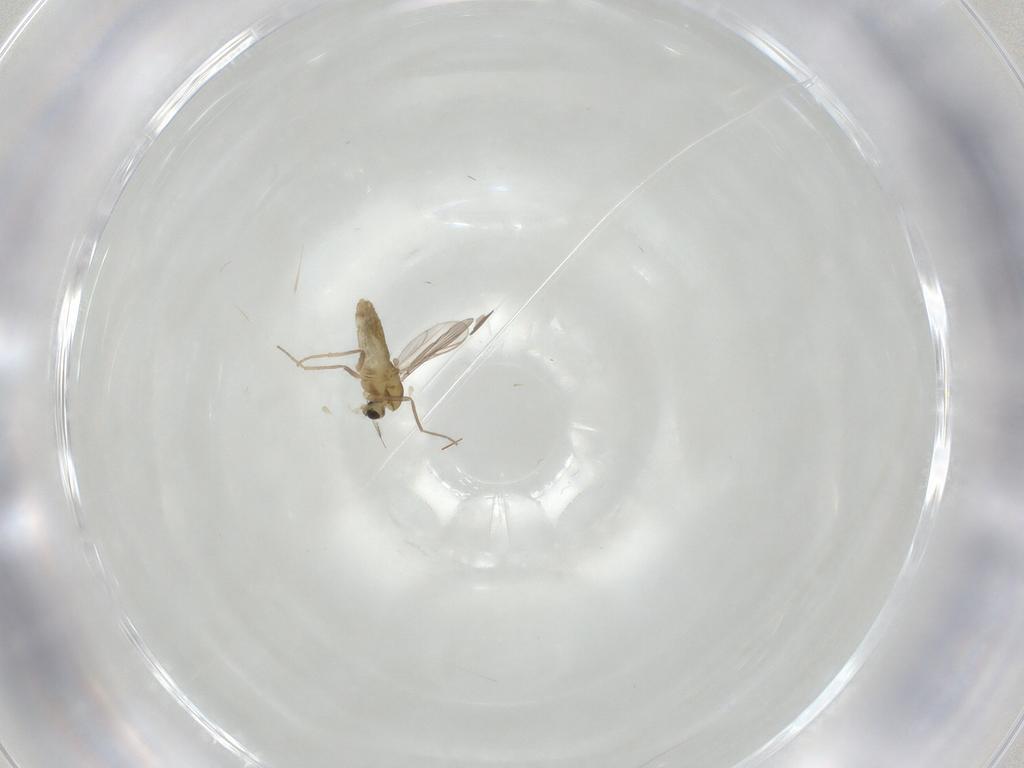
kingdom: Animalia
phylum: Arthropoda
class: Insecta
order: Diptera
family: Chironomidae
